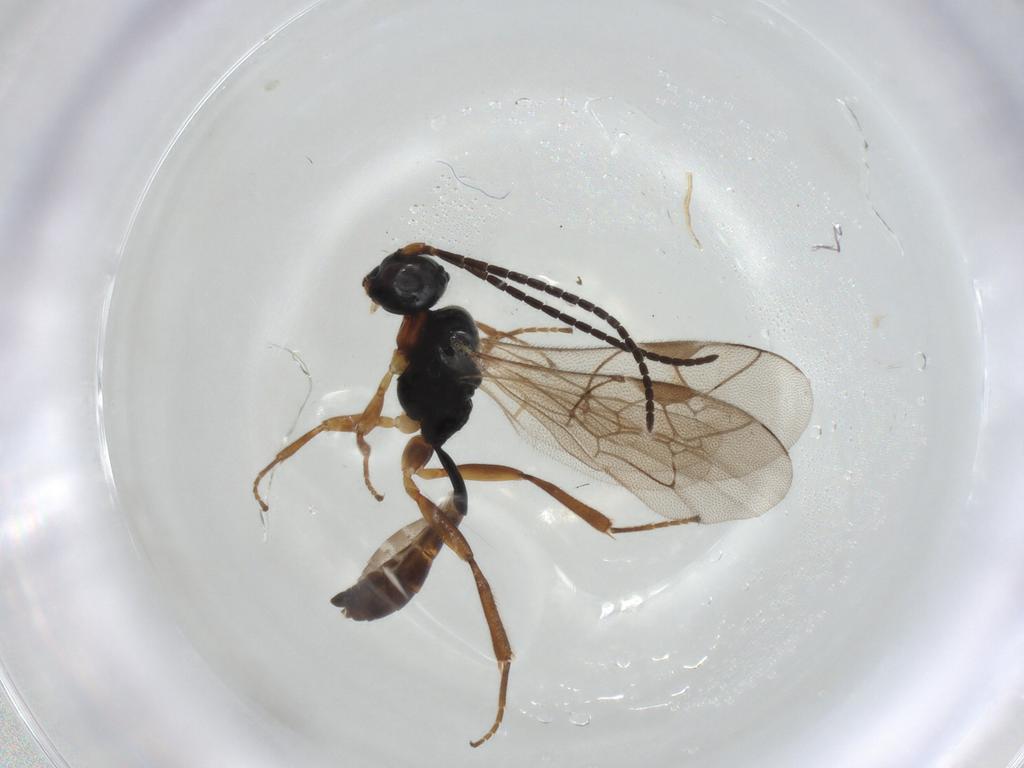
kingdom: Animalia
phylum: Arthropoda
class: Insecta
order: Hymenoptera
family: Ichneumonidae
